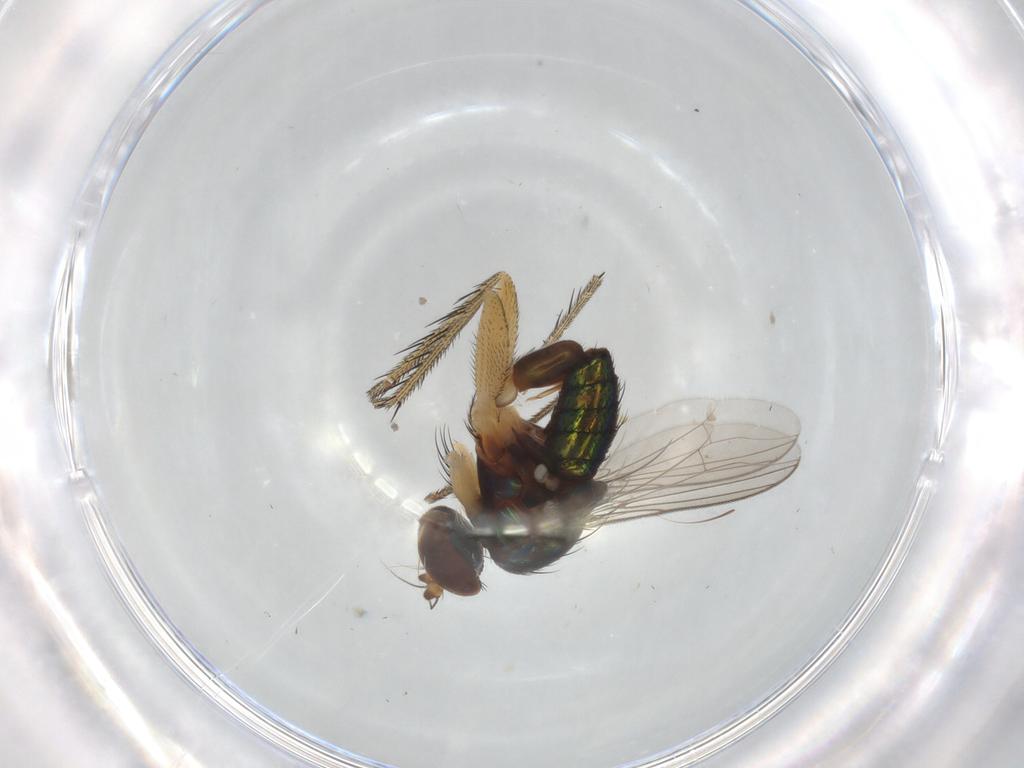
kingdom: Animalia
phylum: Arthropoda
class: Insecta
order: Diptera
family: Dolichopodidae
